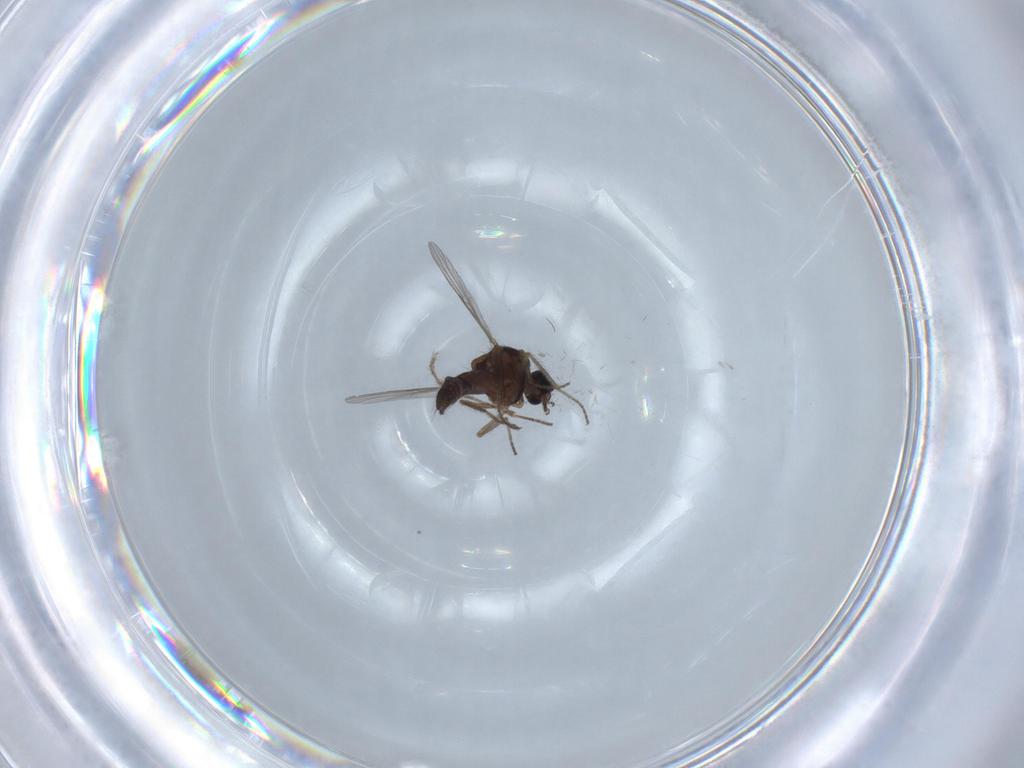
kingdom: Animalia
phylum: Arthropoda
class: Insecta
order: Diptera
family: Ceratopogonidae
